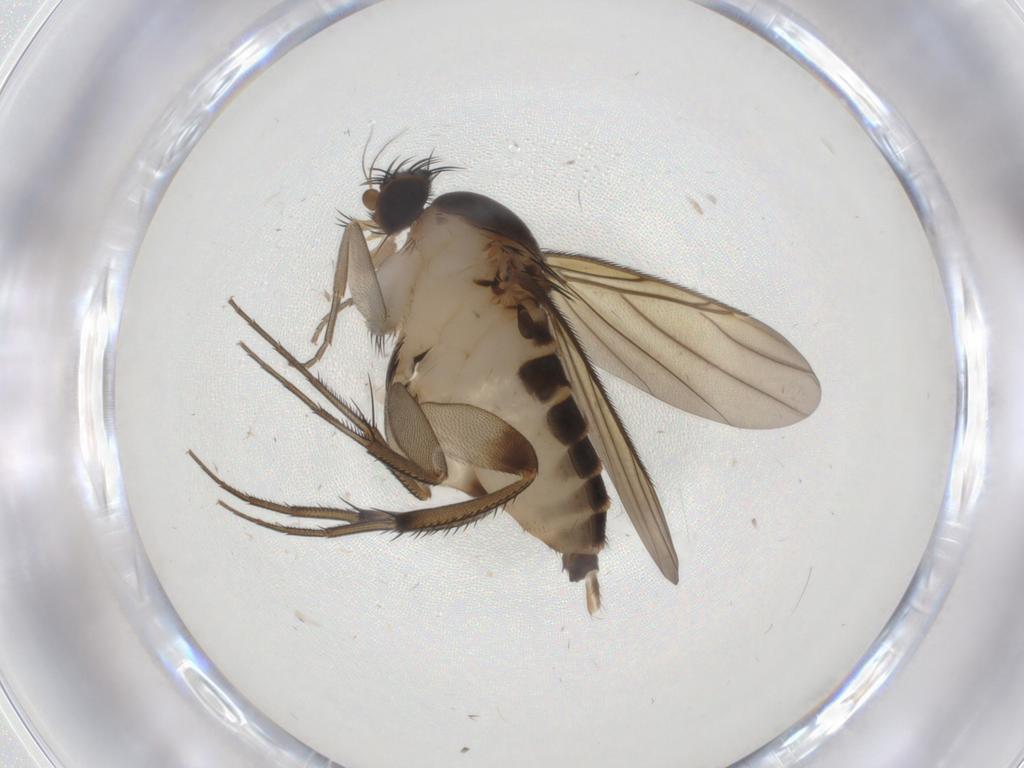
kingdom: Animalia
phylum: Arthropoda
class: Insecta
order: Diptera
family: Phoridae
